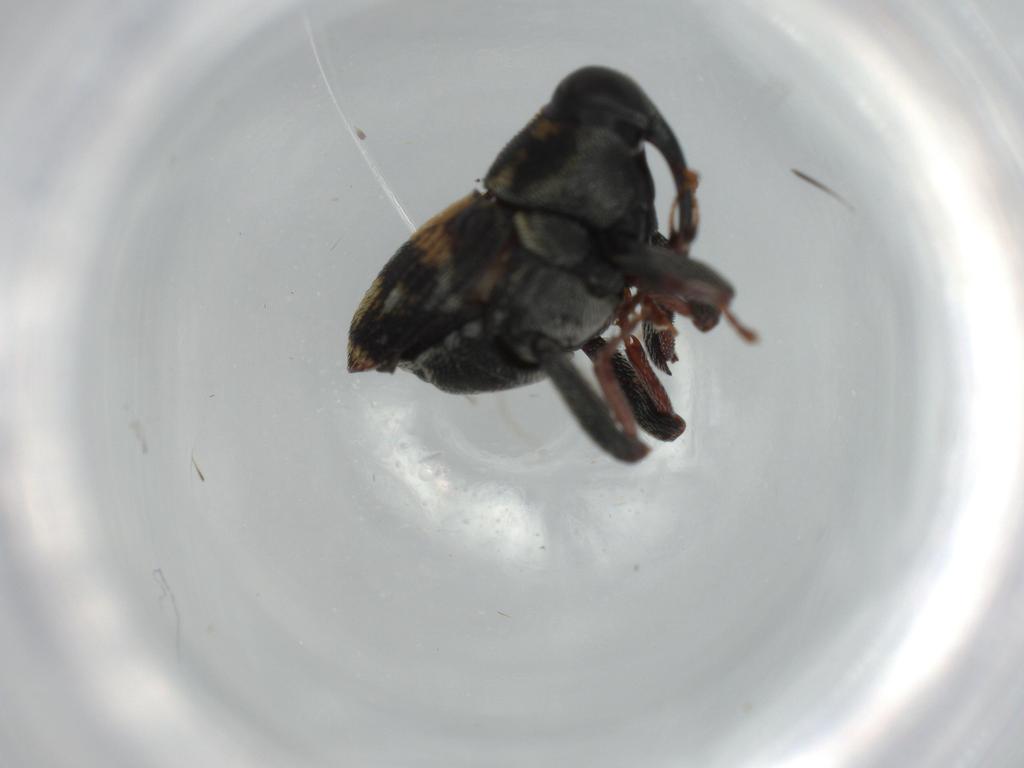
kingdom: Animalia
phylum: Arthropoda
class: Insecta
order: Coleoptera
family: Curculionidae
